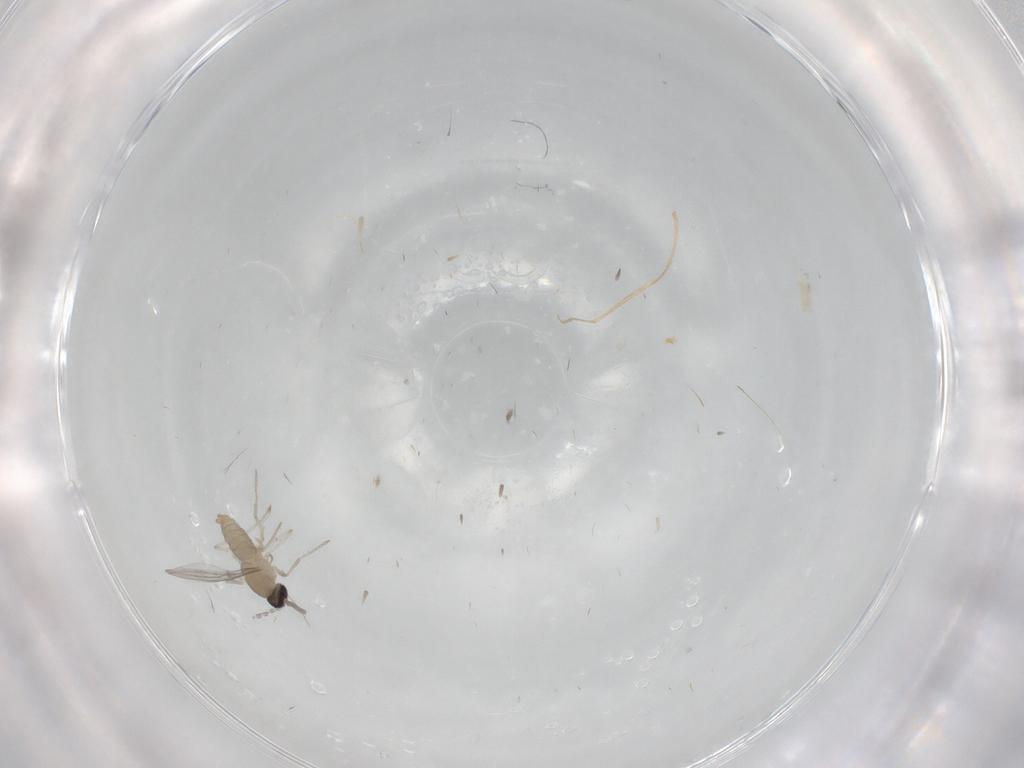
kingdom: Animalia
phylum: Arthropoda
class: Insecta
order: Diptera
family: Cecidomyiidae
